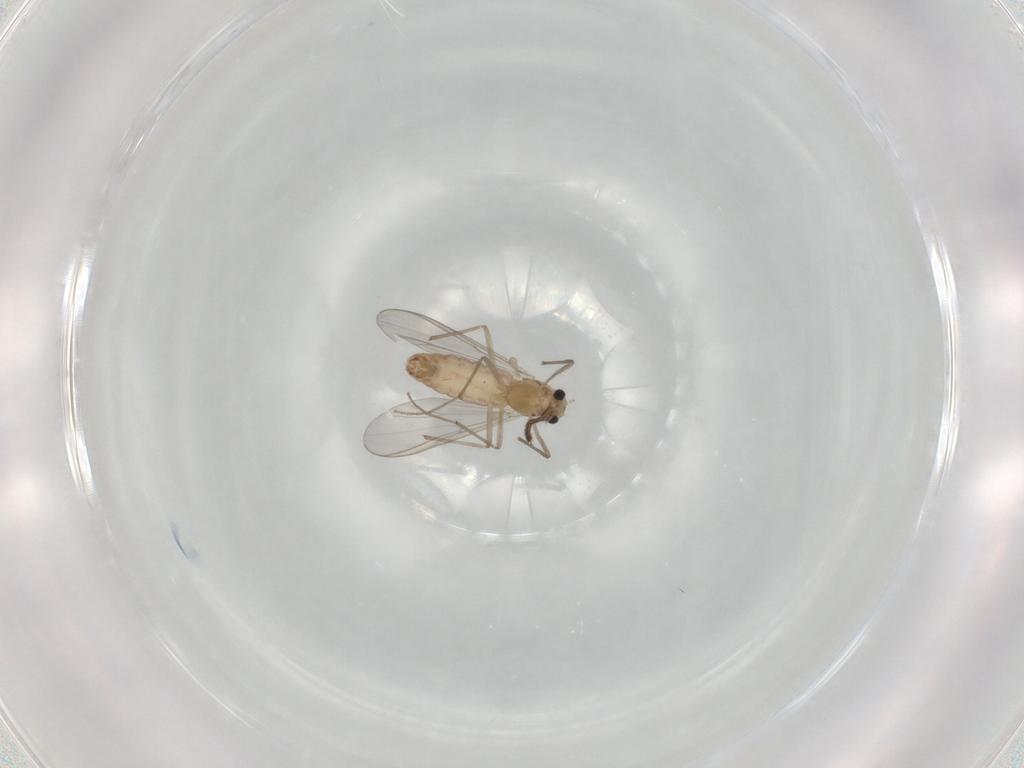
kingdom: Animalia
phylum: Arthropoda
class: Insecta
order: Diptera
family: Chironomidae
